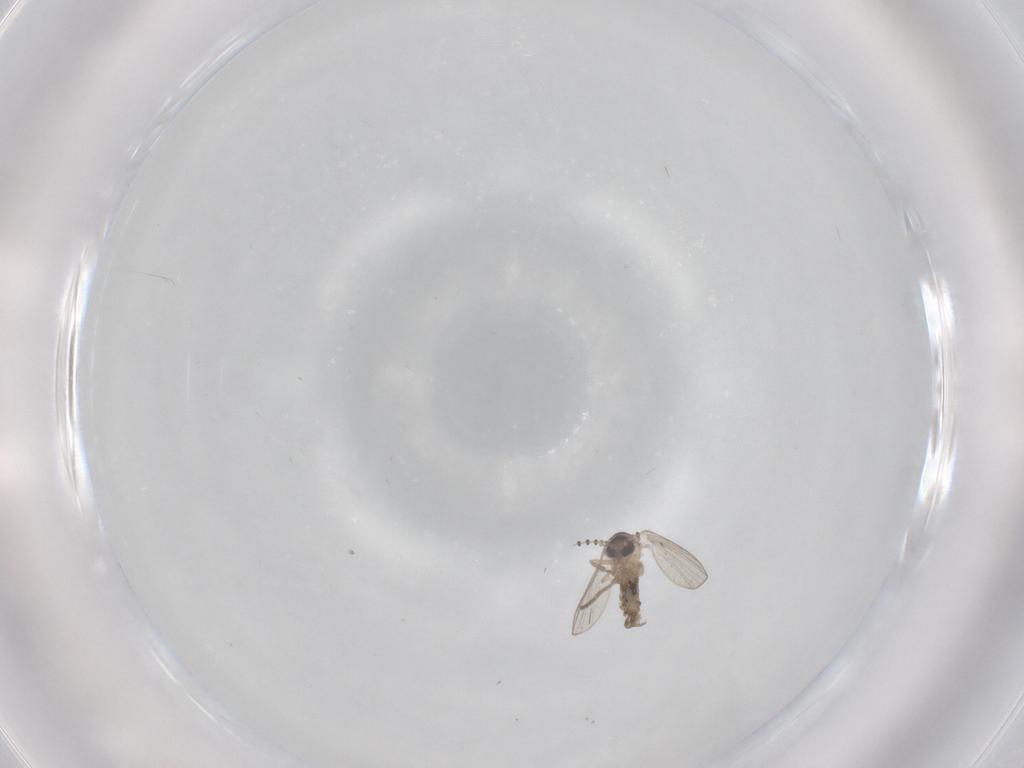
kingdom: Animalia
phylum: Arthropoda
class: Insecta
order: Diptera
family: Psychodidae
